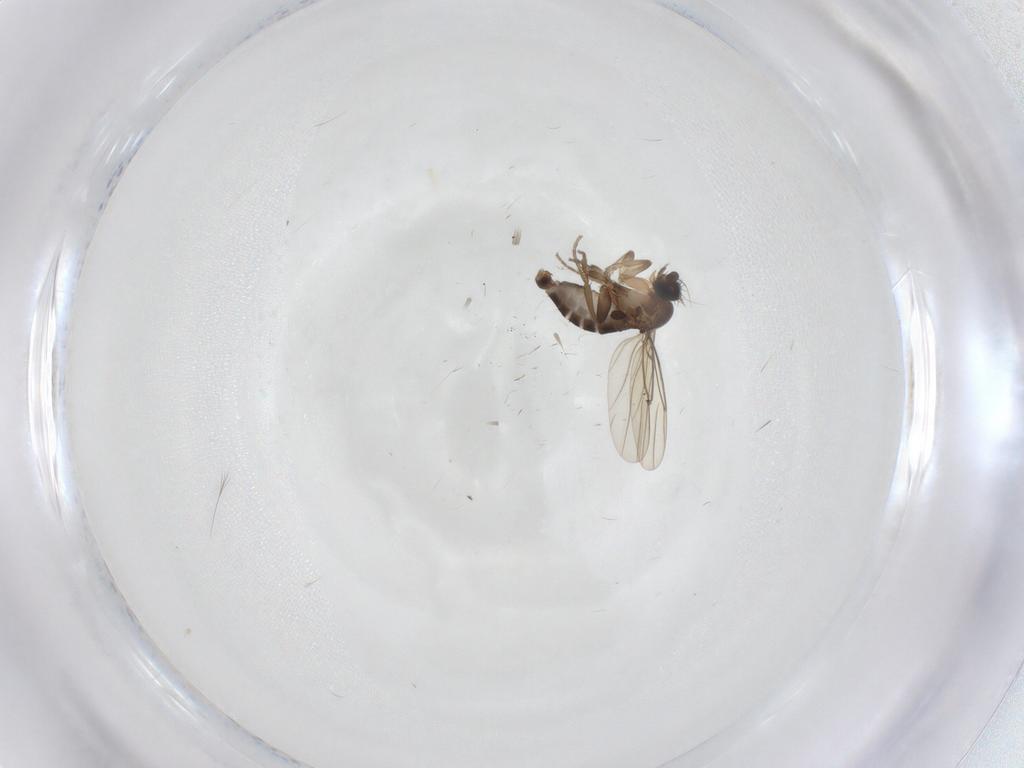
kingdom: Animalia
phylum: Arthropoda
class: Insecta
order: Diptera
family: Phoridae
